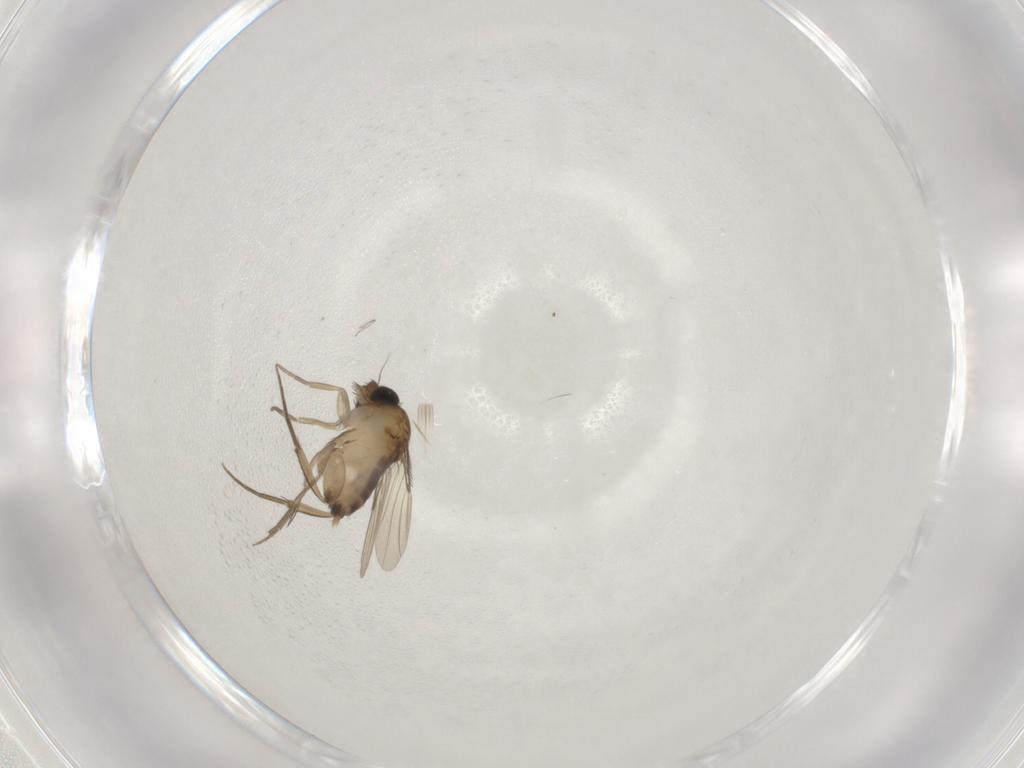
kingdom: Animalia
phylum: Arthropoda
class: Insecta
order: Diptera
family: Phoridae
